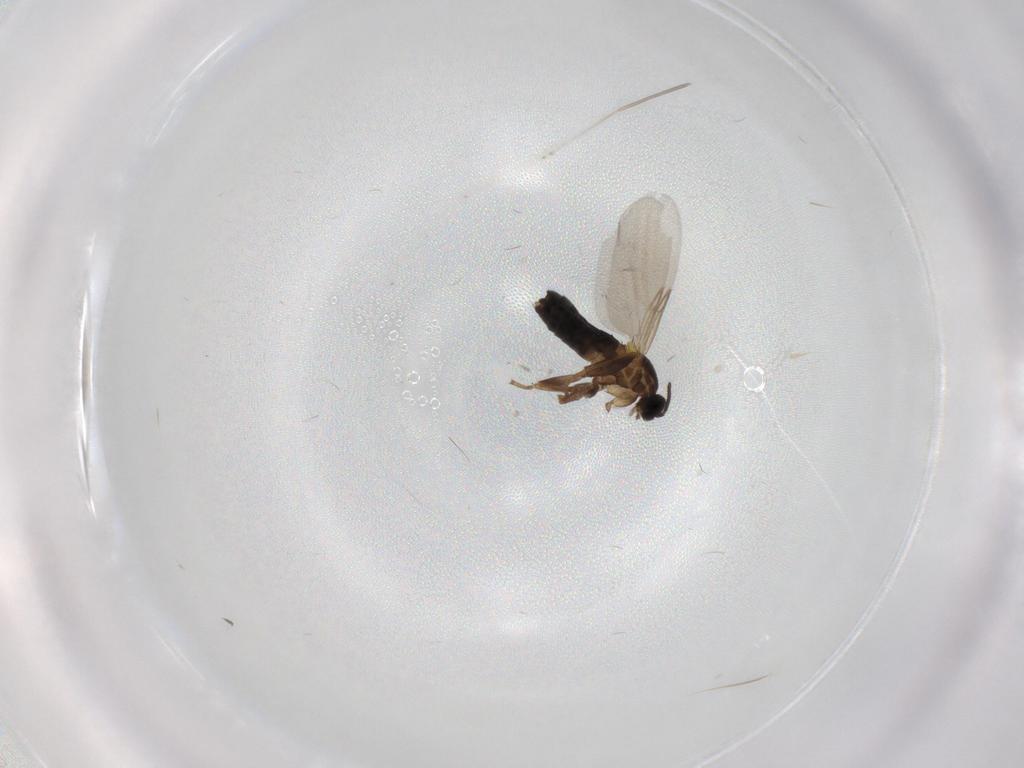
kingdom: Animalia
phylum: Arthropoda
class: Insecta
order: Diptera
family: Scatopsidae
